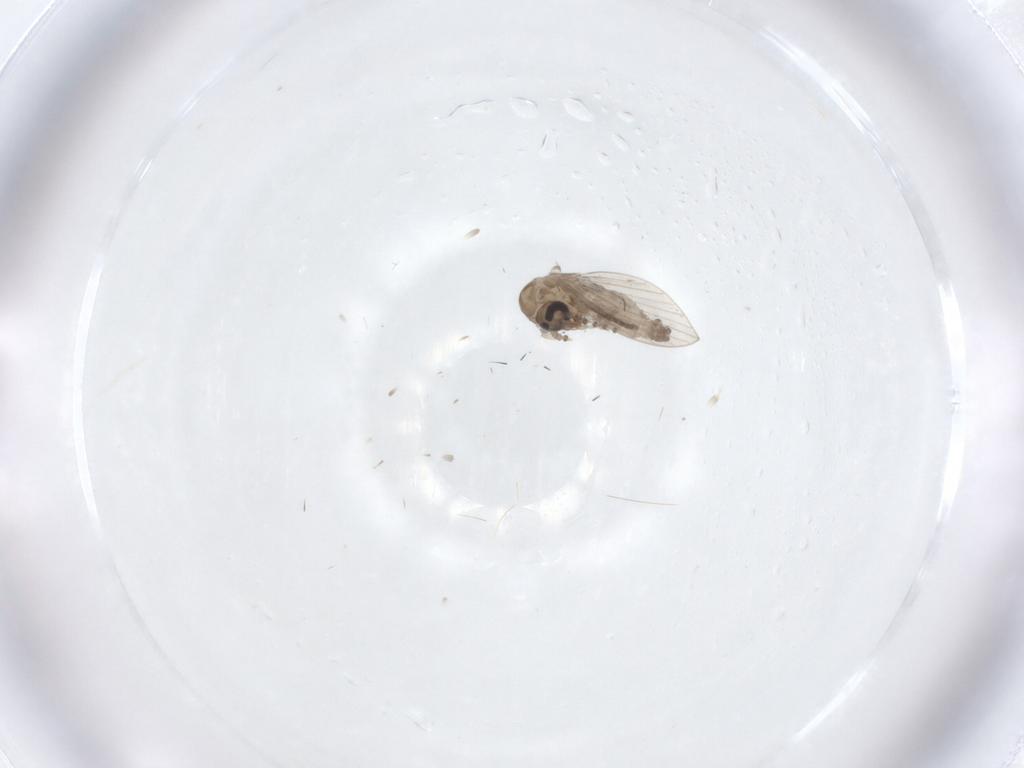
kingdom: Animalia
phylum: Arthropoda
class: Insecta
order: Diptera
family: Psychodidae
